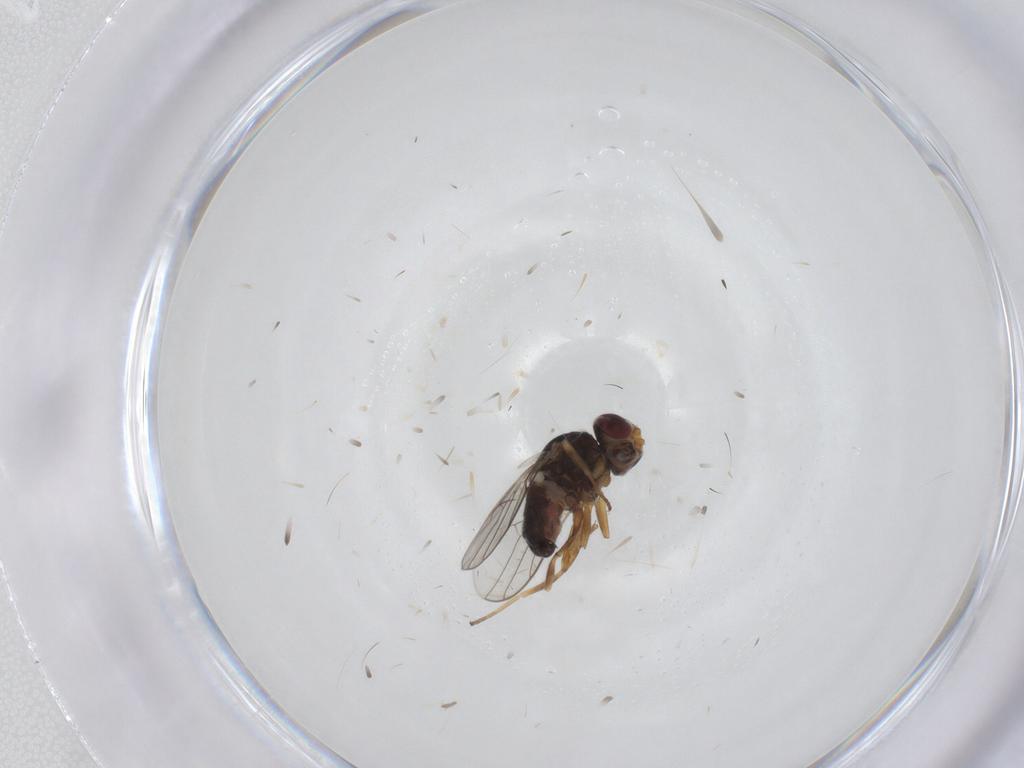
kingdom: Animalia
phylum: Arthropoda
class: Insecta
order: Diptera
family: Chloropidae
